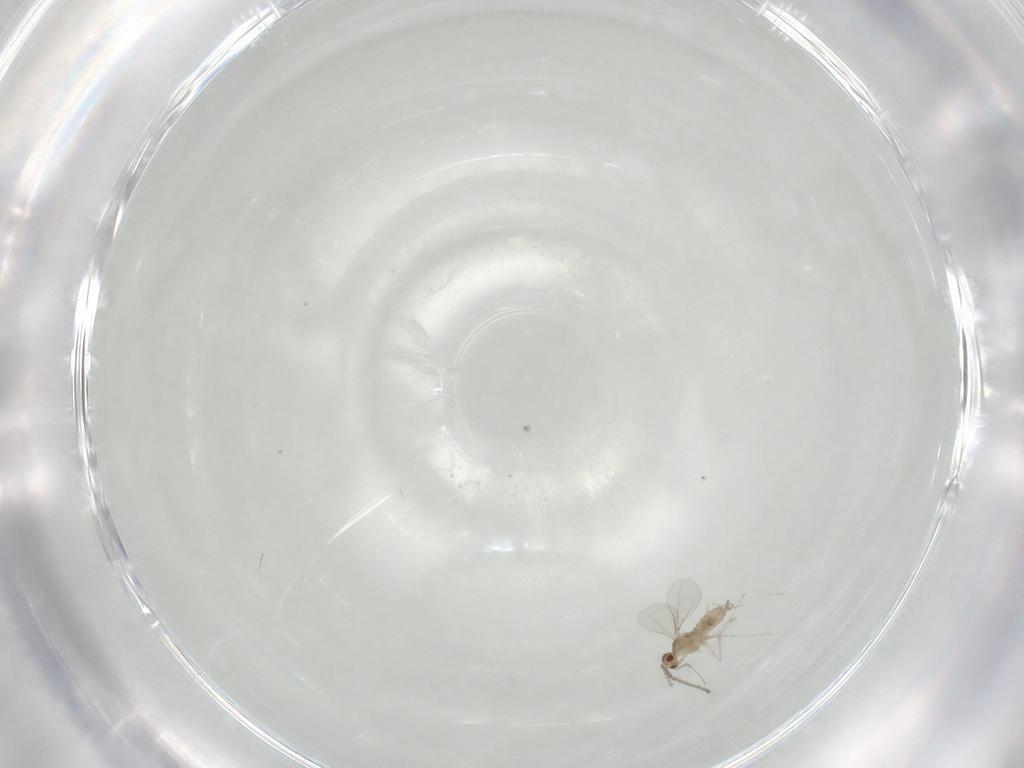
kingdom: Animalia
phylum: Arthropoda
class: Insecta
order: Diptera
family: Cecidomyiidae
